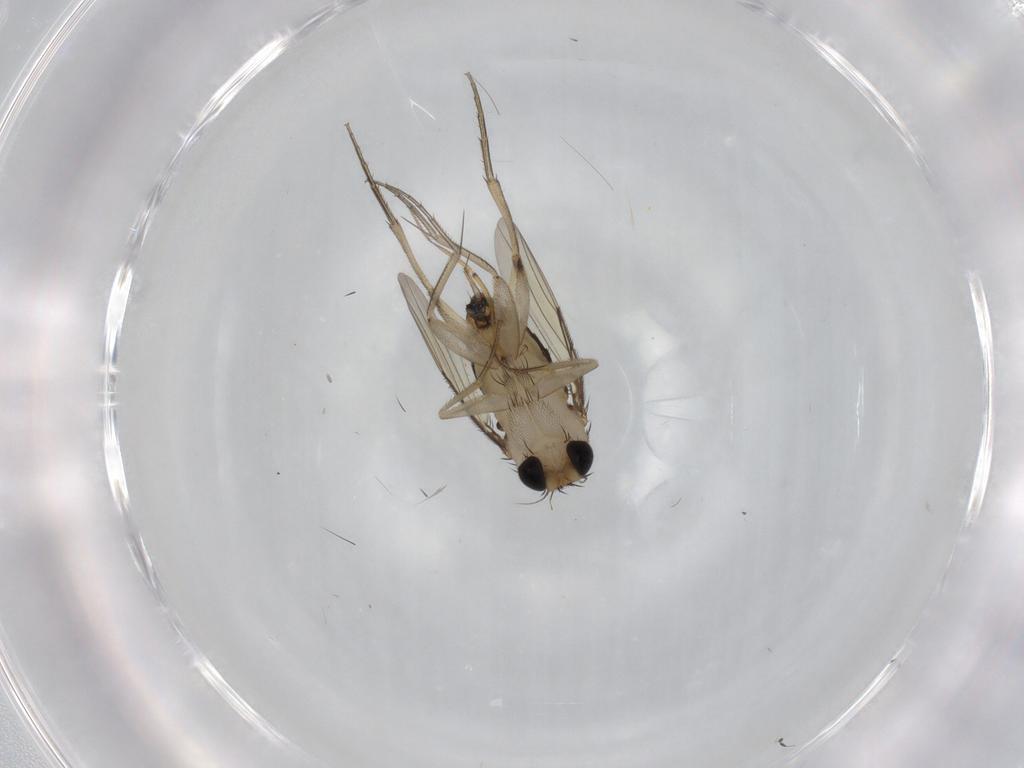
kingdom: Animalia
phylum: Arthropoda
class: Insecta
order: Diptera
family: Phoridae
